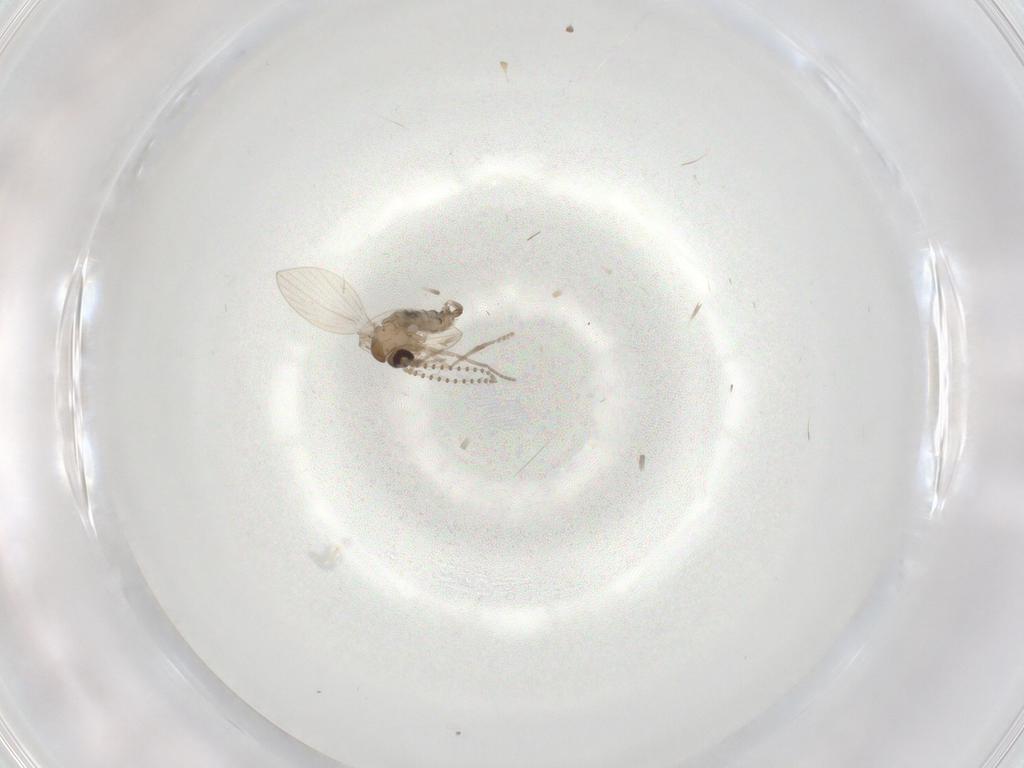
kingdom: Animalia
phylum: Arthropoda
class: Insecta
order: Diptera
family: Psychodidae
